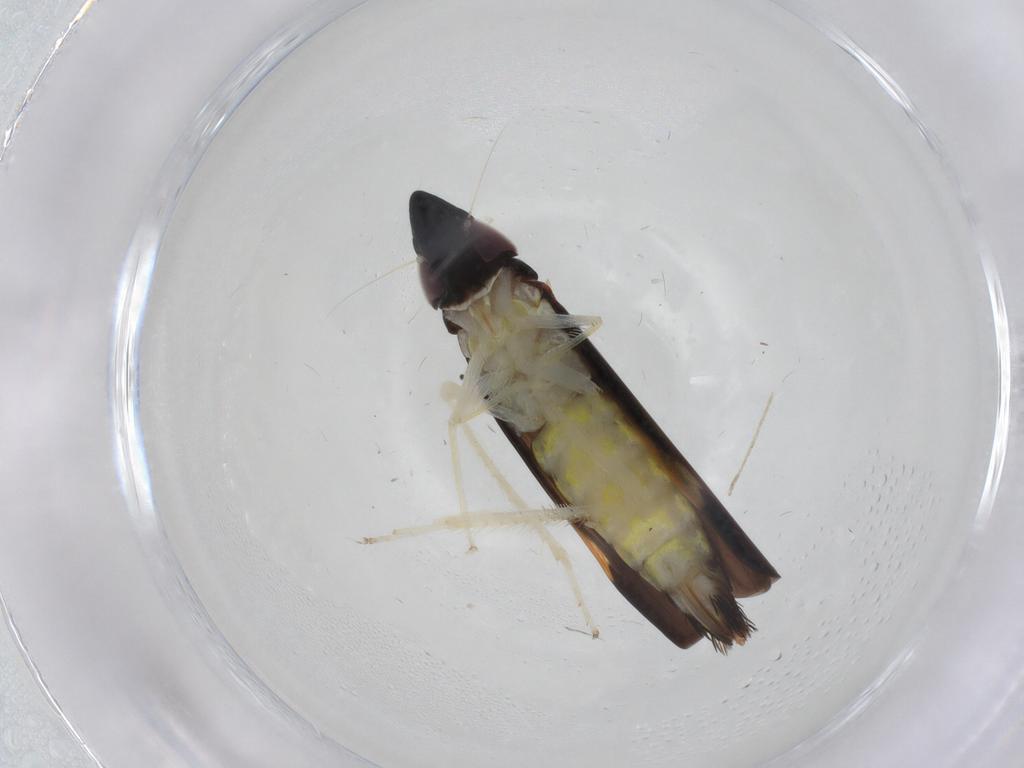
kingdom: Animalia
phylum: Arthropoda
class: Insecta
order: Hemiptera
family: Cicadellidae
